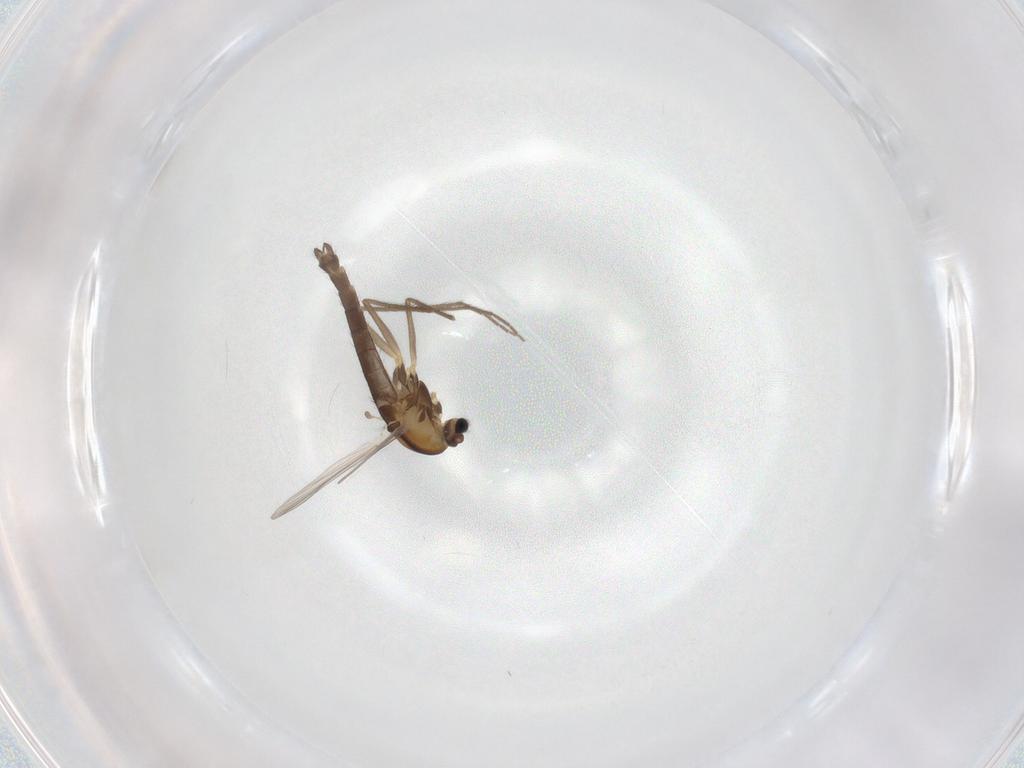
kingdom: Animalia
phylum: Arthropoda
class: Insecta
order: Diptera
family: Chironomidae
